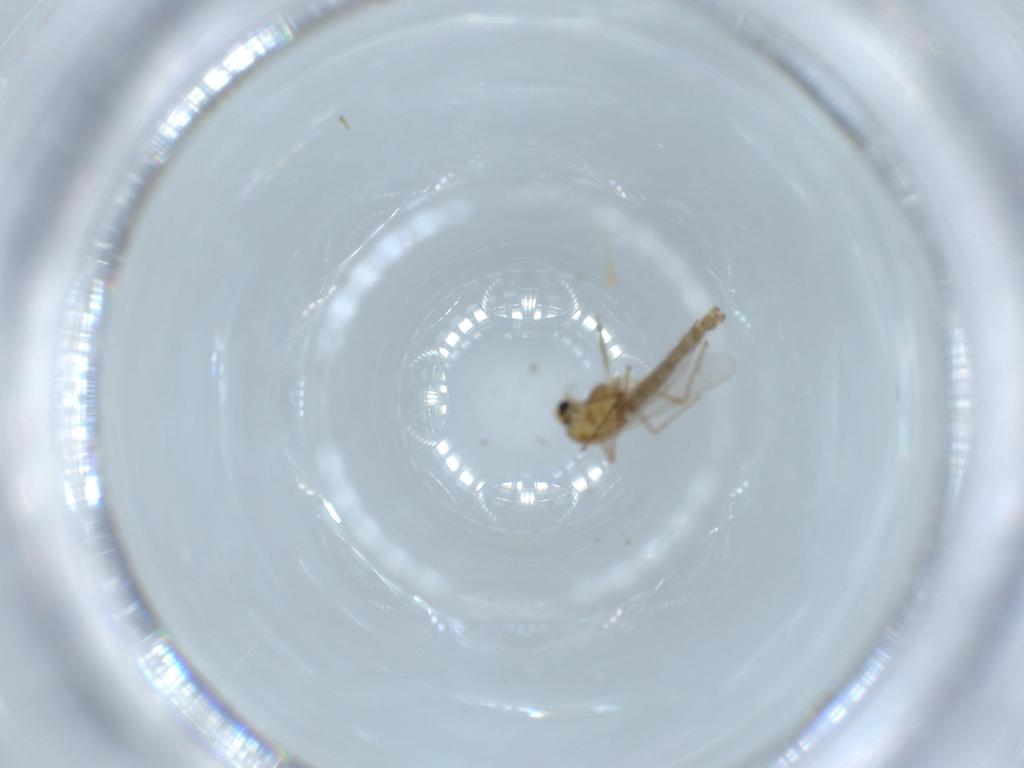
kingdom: Animalia
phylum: Arthropoda
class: Insecta
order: Diptera
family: Chironomidae
